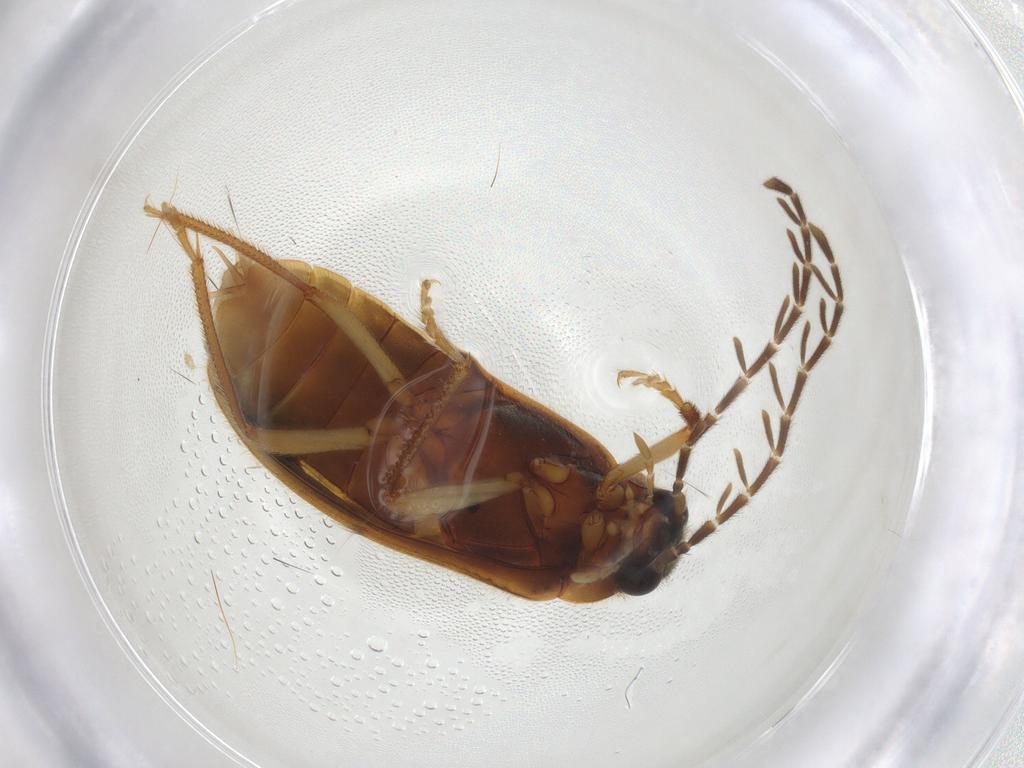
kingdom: Animalia
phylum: Arthropoda
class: Insecta
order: Coleoptera
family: Ptilodactylidae
